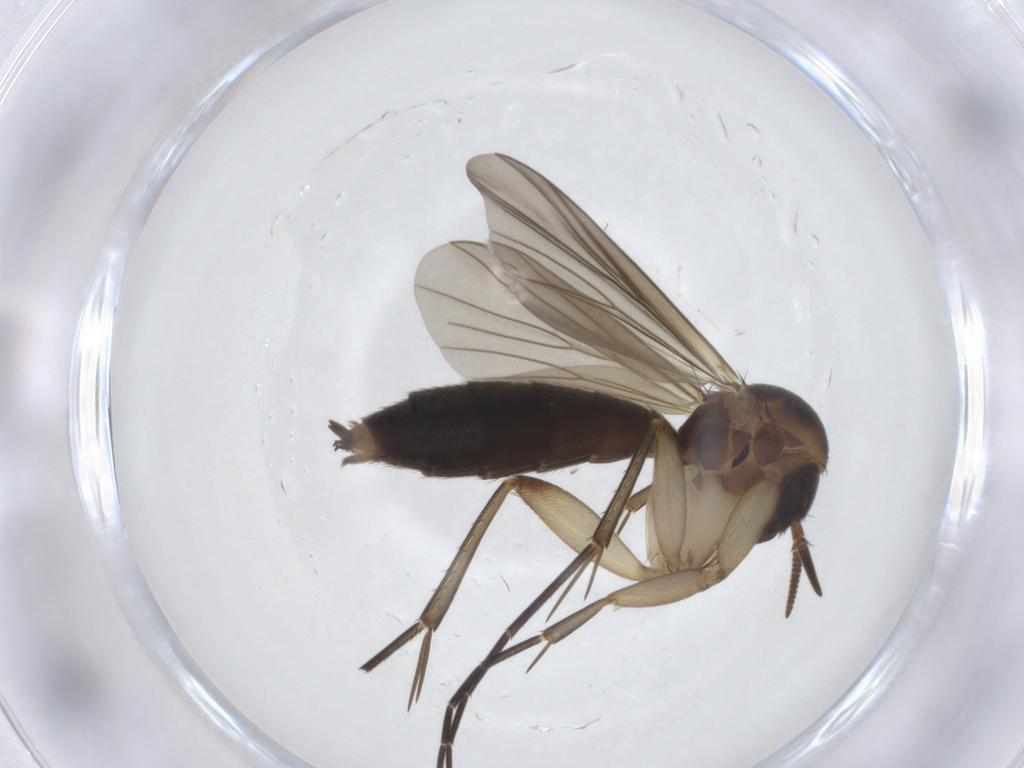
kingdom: Animalia
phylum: Arthropoda
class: Insecta
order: Diptera
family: Mycetophilidae
